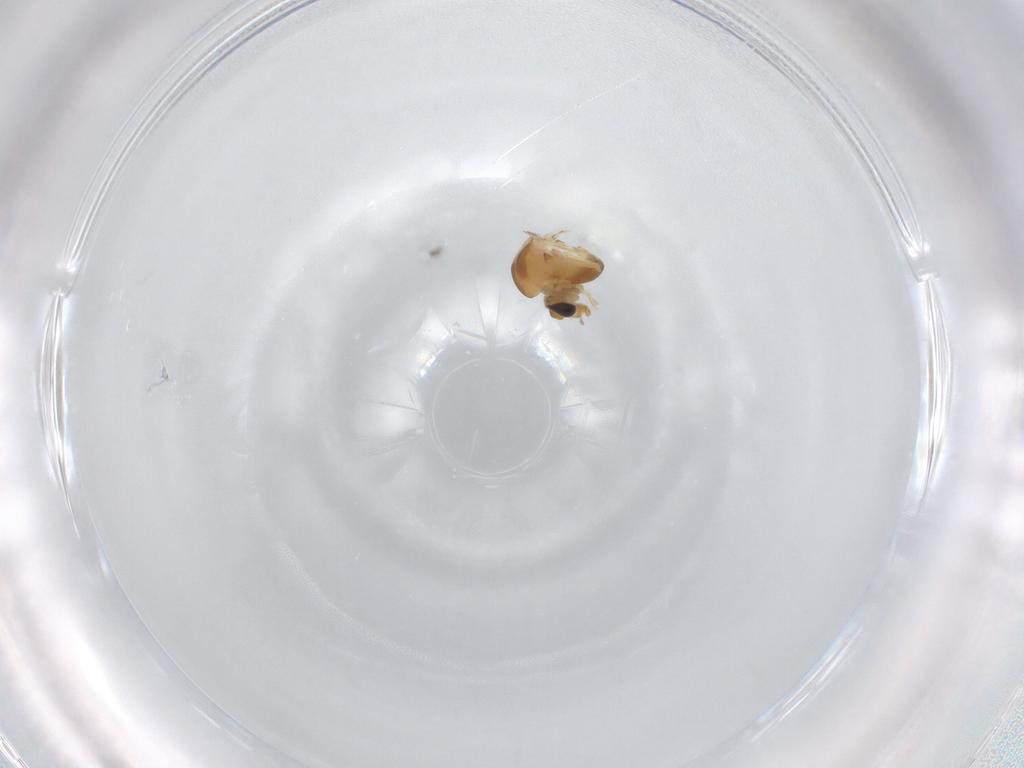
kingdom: Animalia
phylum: Arthropoda
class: Insecta
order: Diptera
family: Chironomidae
